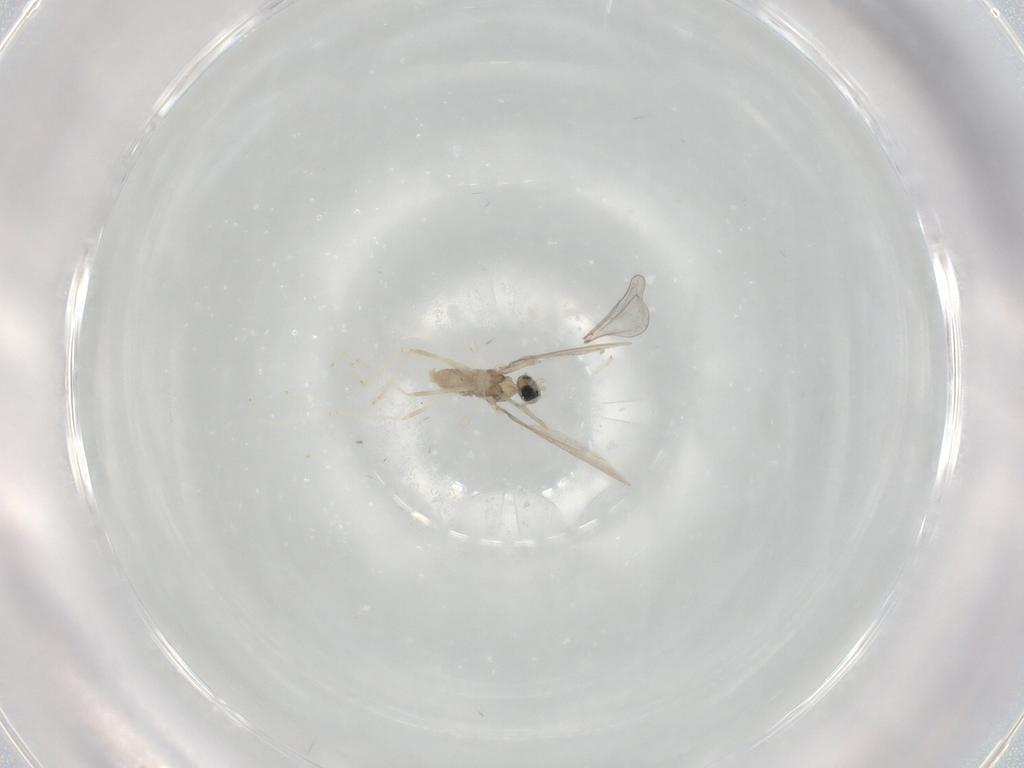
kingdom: Animalia
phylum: Arthropoda
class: Insecta
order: Diptera
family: Cecidomyiidae
